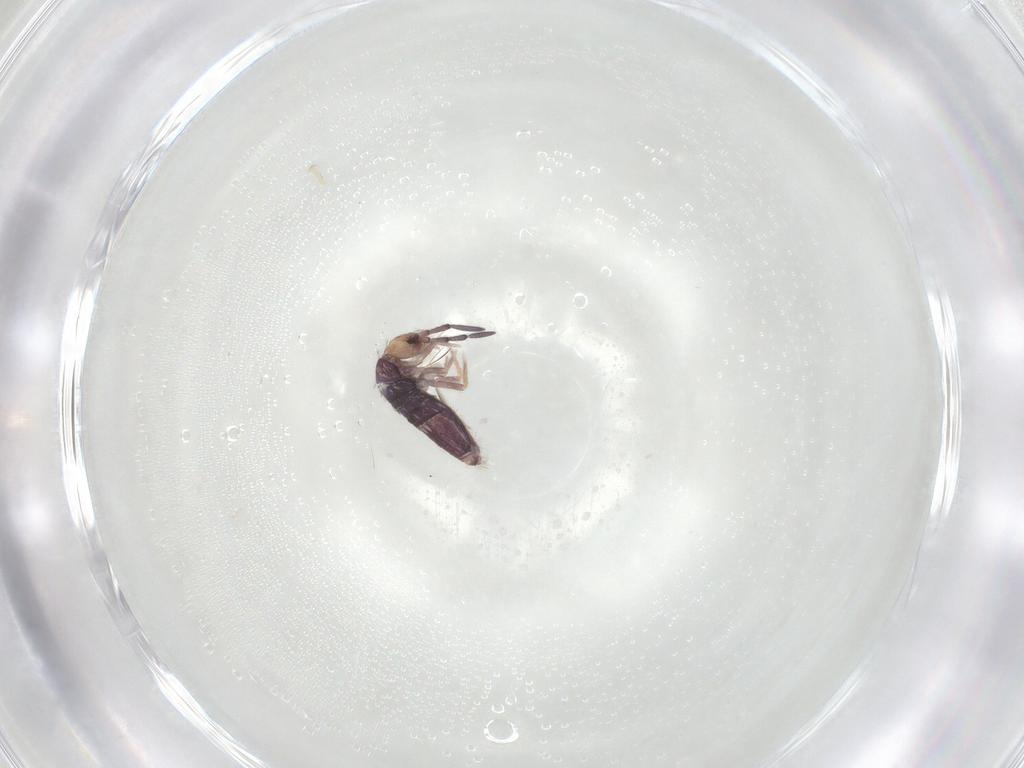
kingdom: Animalia
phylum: Arthropoda
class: Collembola
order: Entomobryomorpha
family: Entomobryidae
